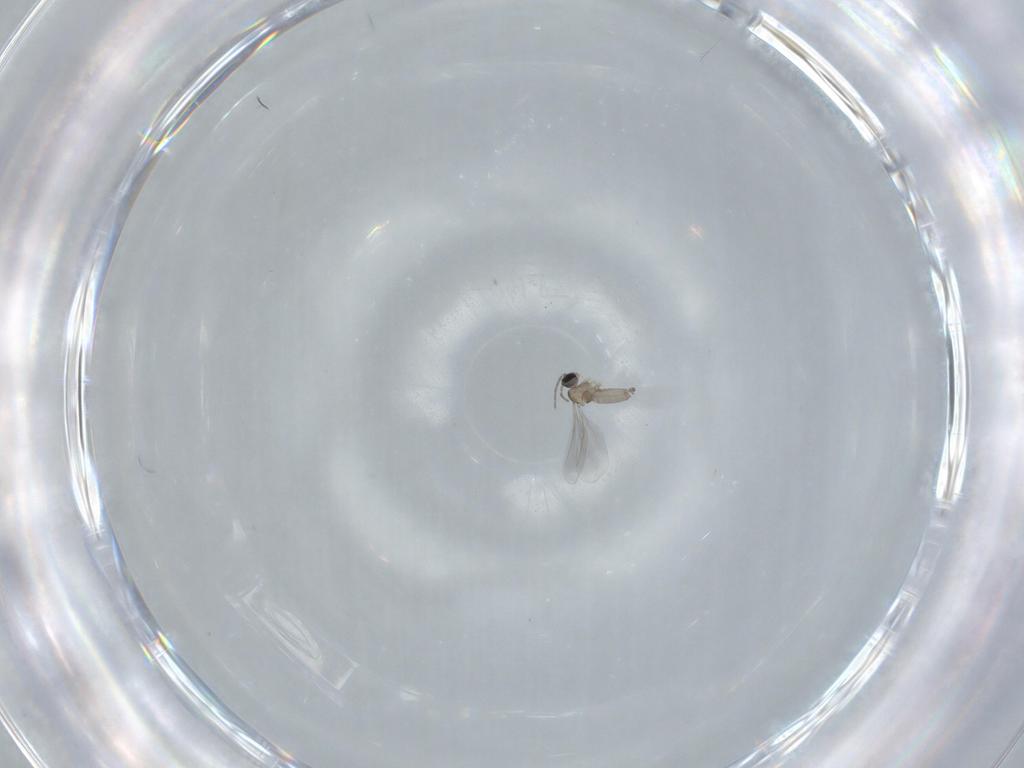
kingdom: Animalia
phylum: Arthropoda
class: Insecta
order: Diptera
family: Cecidomyiidae
